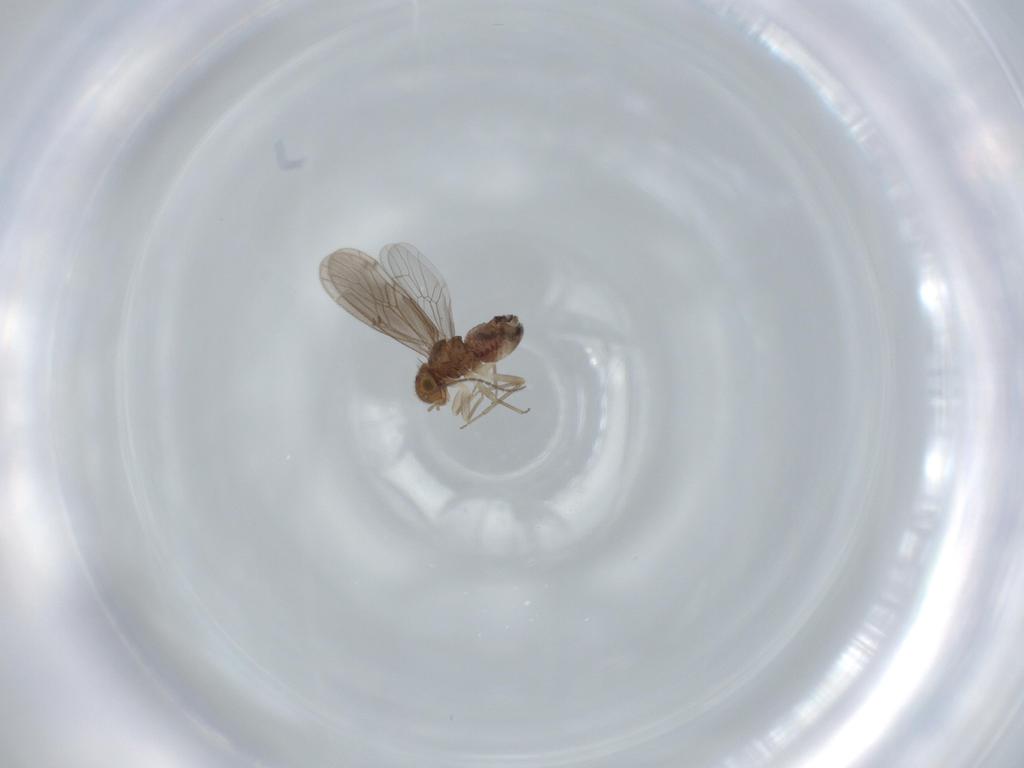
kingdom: Animalia
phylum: Arthropoda
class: Insecta
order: Psocodea
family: Ectopsocidae
